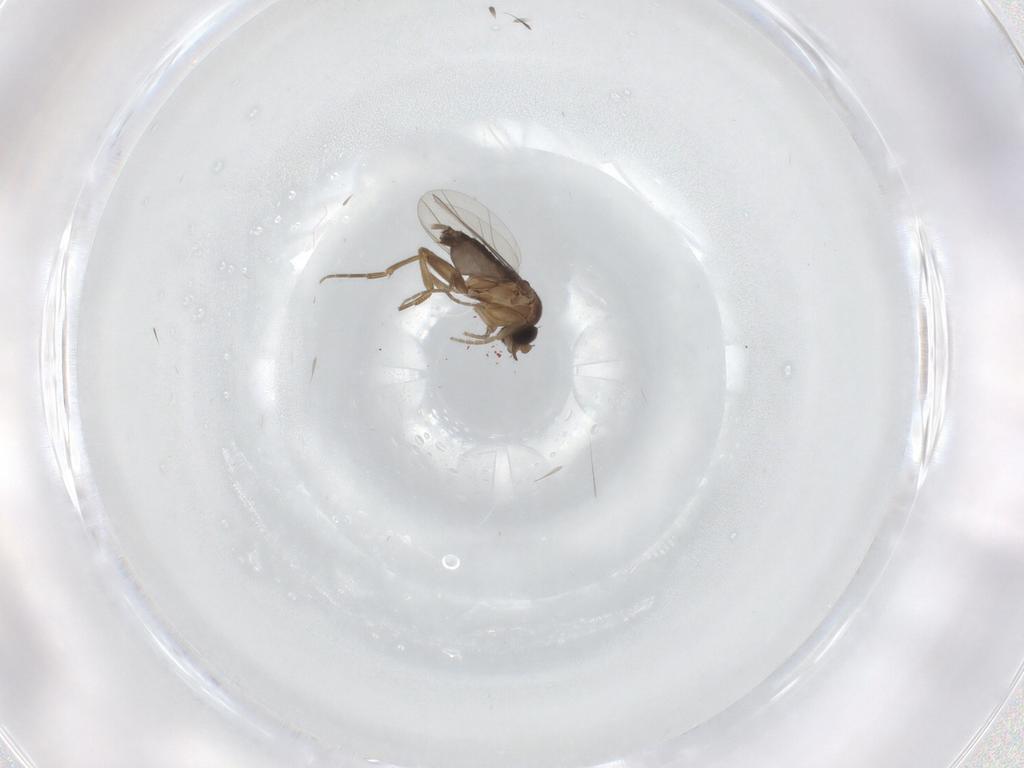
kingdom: Animalia
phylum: Arthropoda
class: Insecta
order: Diptera
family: Phoridae
